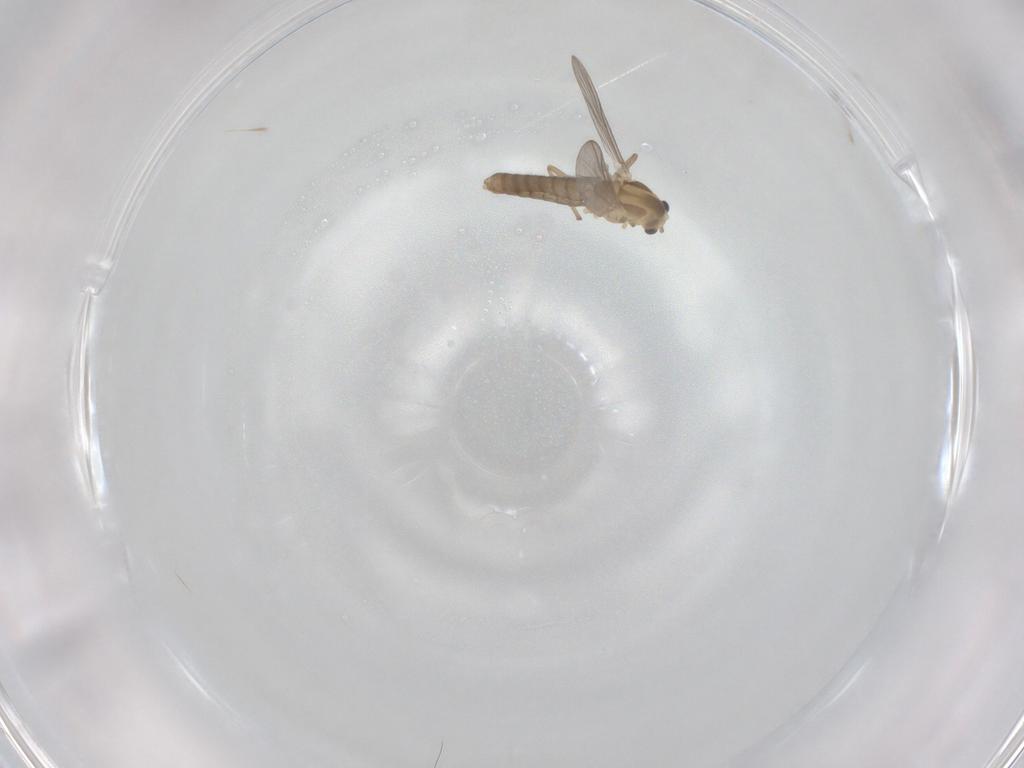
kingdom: Animalia
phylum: Arthropoda
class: Insecta
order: Diptera
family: Chironomidae
